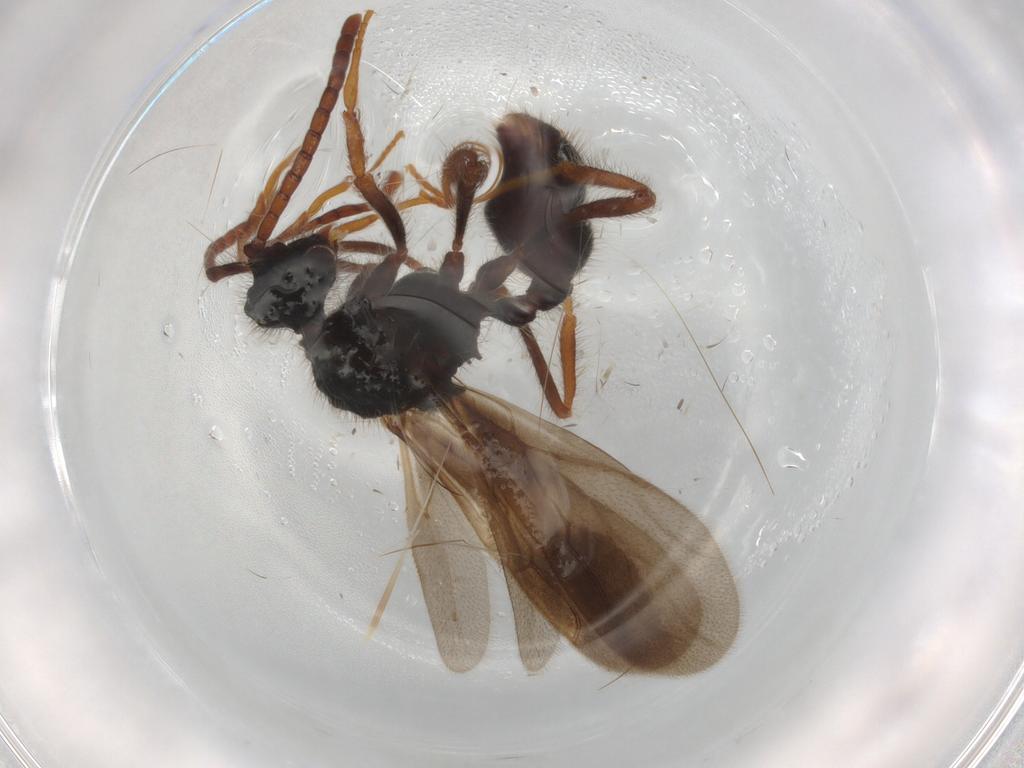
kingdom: Animalia
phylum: Arthropoda
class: Insecta
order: Hymenoptera
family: Formicidae
